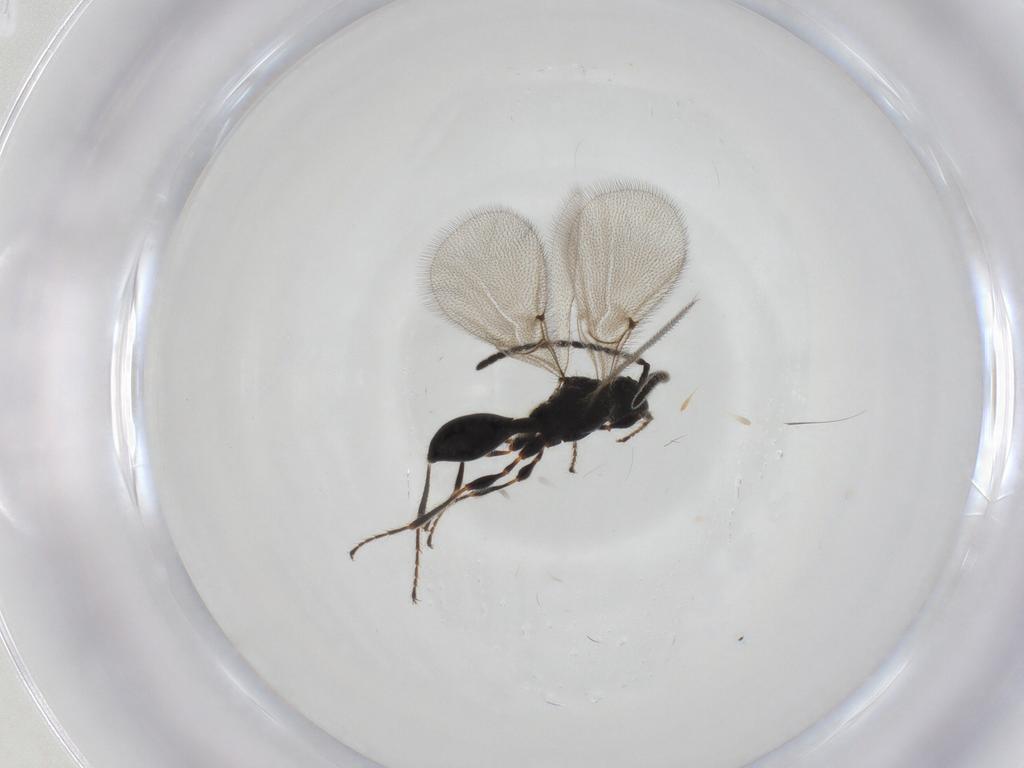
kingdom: Animalia
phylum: Arthropoda
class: Insecta
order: Hymenoptera
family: Diapriidae
